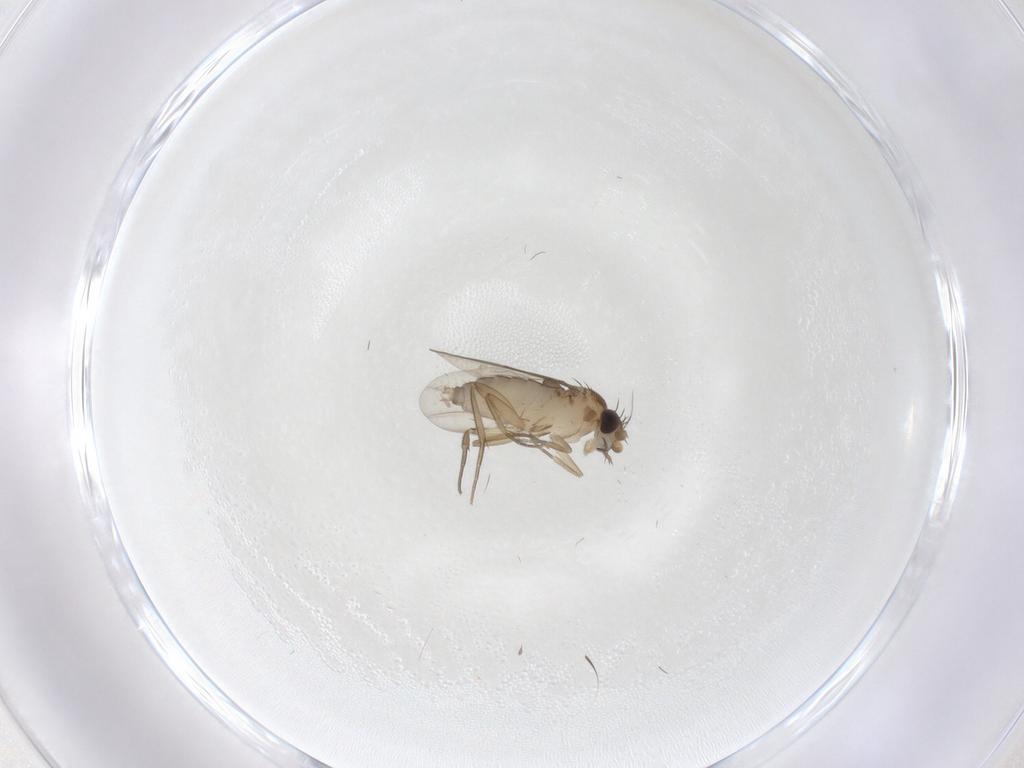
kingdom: Animalia
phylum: Arthropoda
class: Insecta
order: Diptera
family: Phoridae
